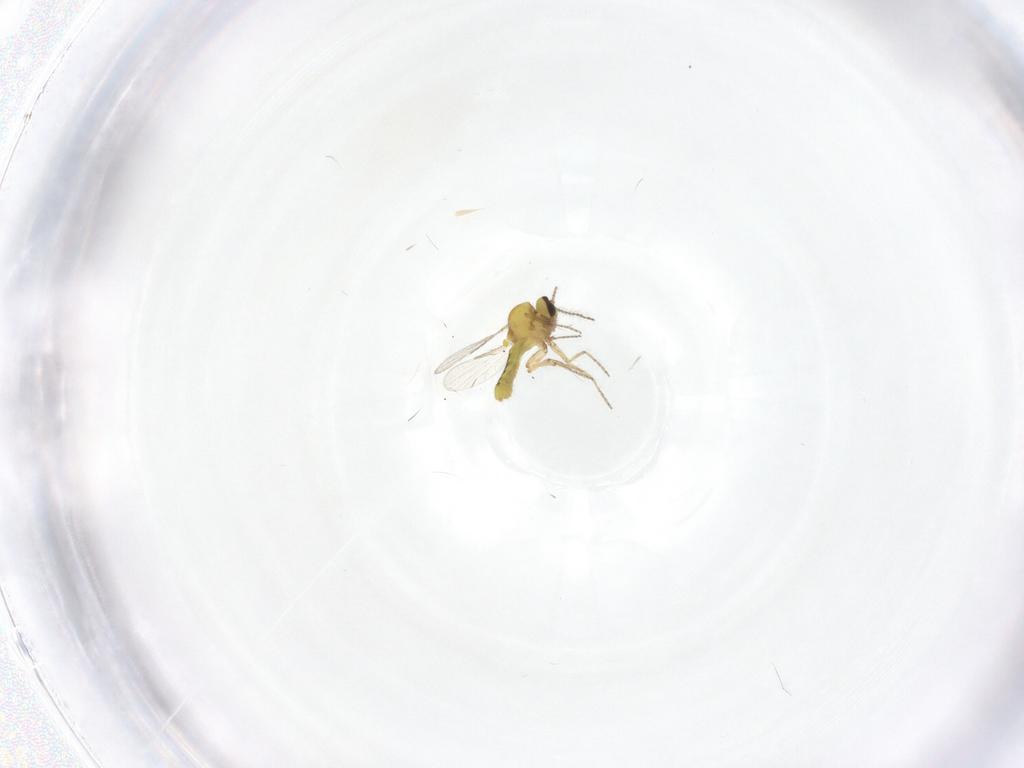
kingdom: Animalia
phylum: Arthropoda
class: Insecta
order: Diptera
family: Ceratopogonidae
